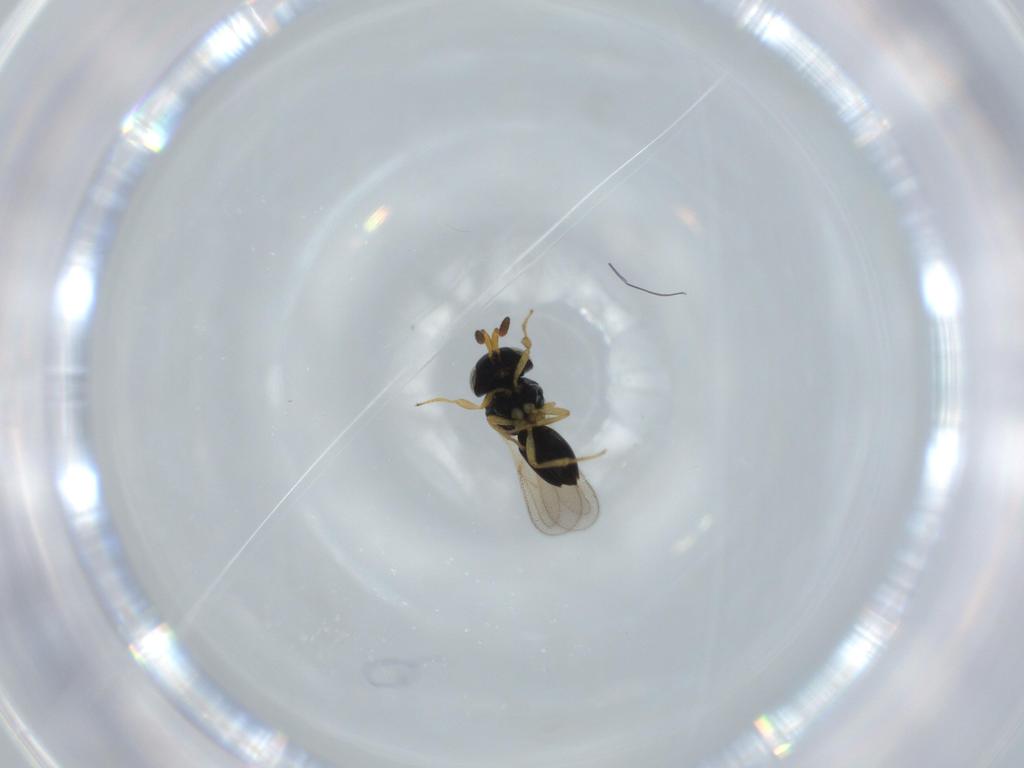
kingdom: Animalia
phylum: Arthropoda
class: Insecta
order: Hymenoptera
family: Scelionidae
